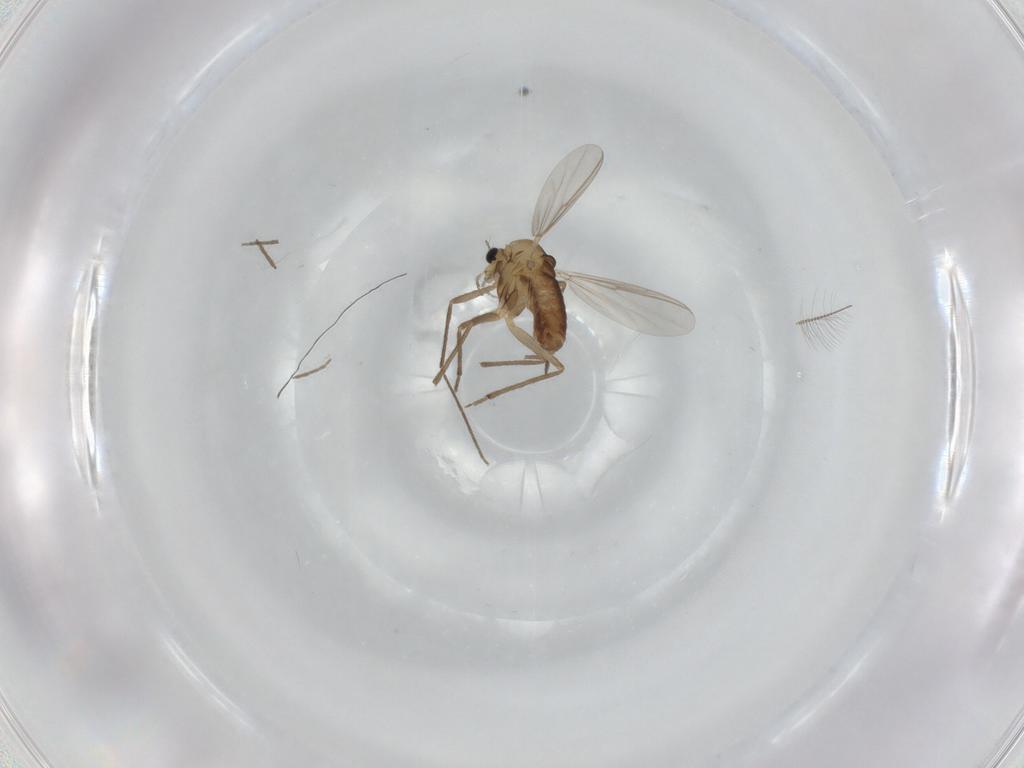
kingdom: Animalia
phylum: Arthropoda
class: Insecta
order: Diptera
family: Chironomidae
